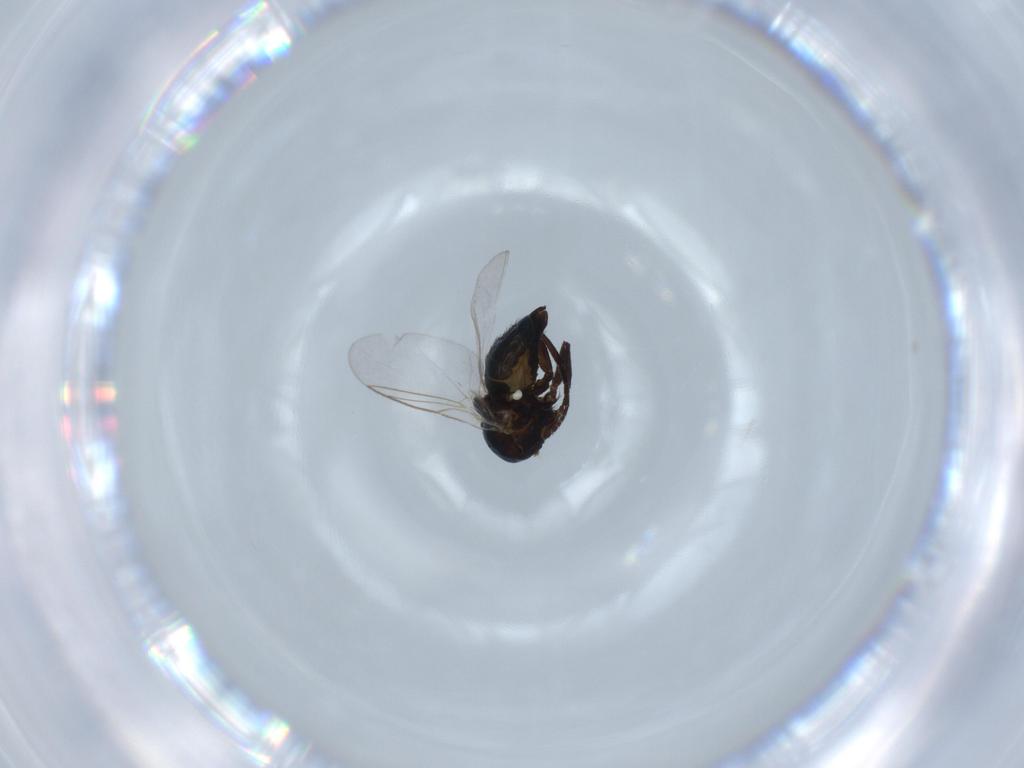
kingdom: Animalia
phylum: Arthropoda
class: Insecta
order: Diptera
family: Agromyzidae
